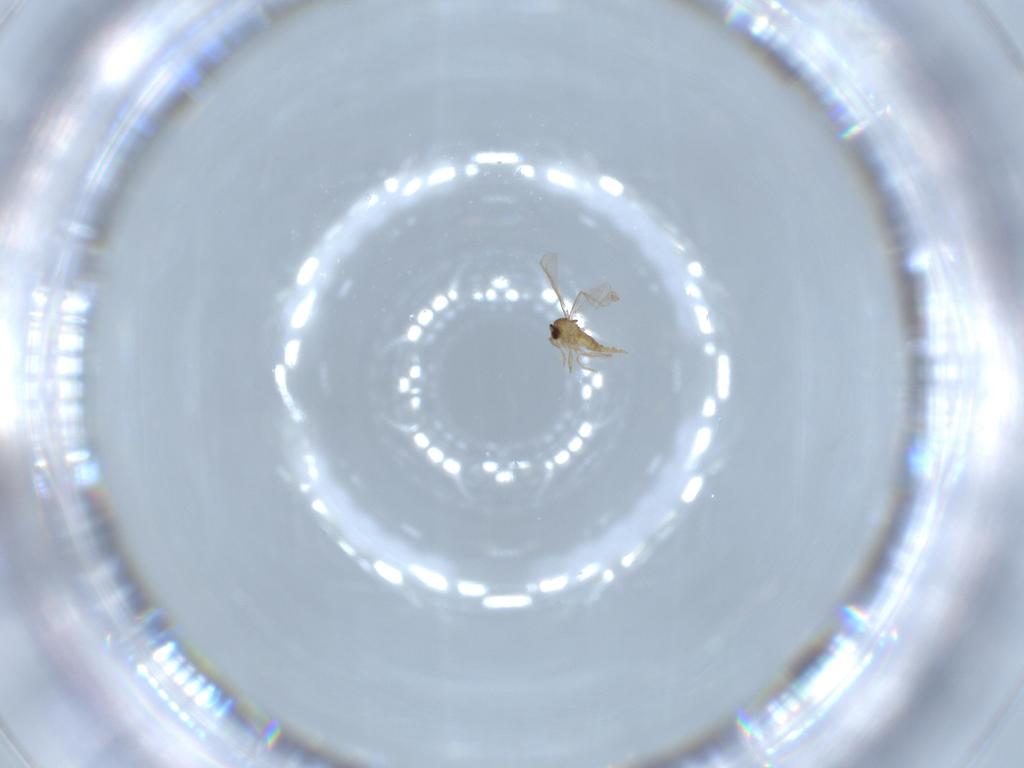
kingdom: Animalia
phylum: Arthropoda
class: Insecta
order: Diptera
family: Cecidomyiidae
